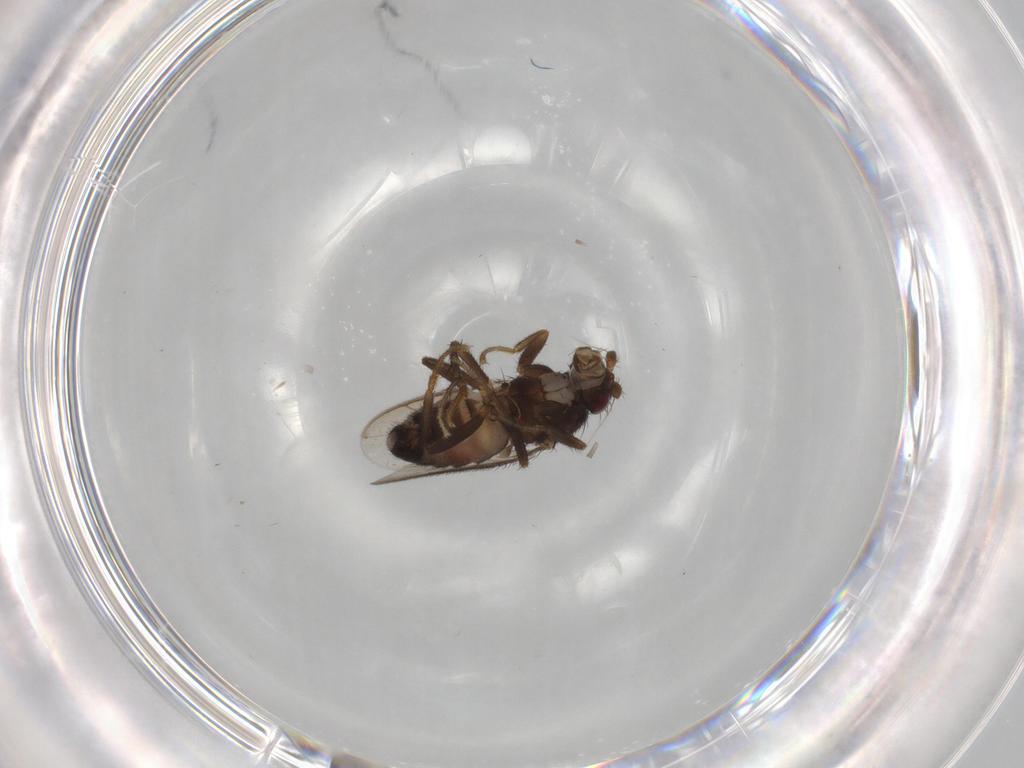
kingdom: Animalia
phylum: Arthropoda
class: Insecta
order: Diptera
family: Sphaeroceridae
